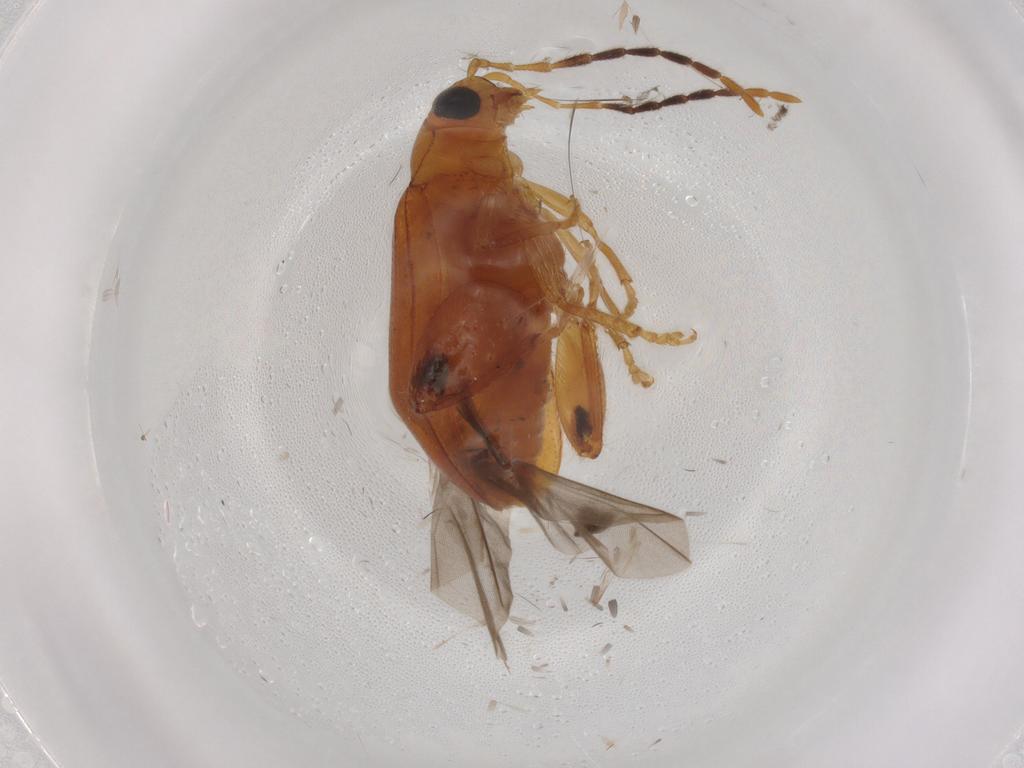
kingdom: Animalia
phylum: Arthropoda
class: Insecta
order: Coleoptera
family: Chrysomelidae
